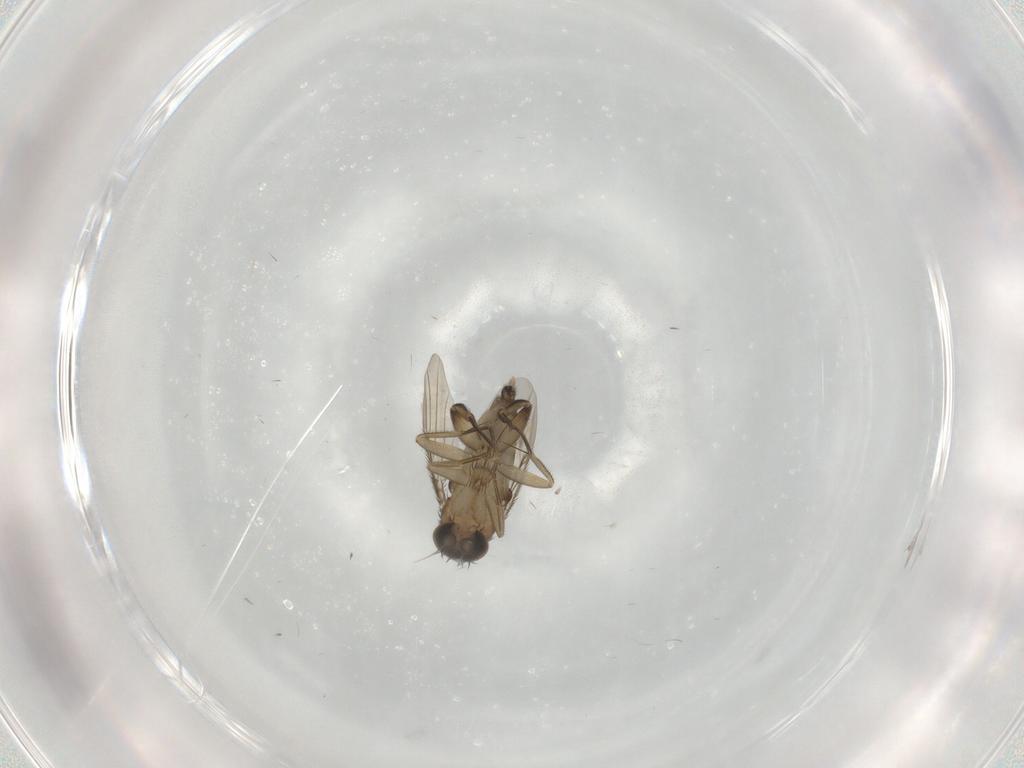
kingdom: Animalia
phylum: Arthropoda
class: Insecta
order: Diptera
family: Phoridae
